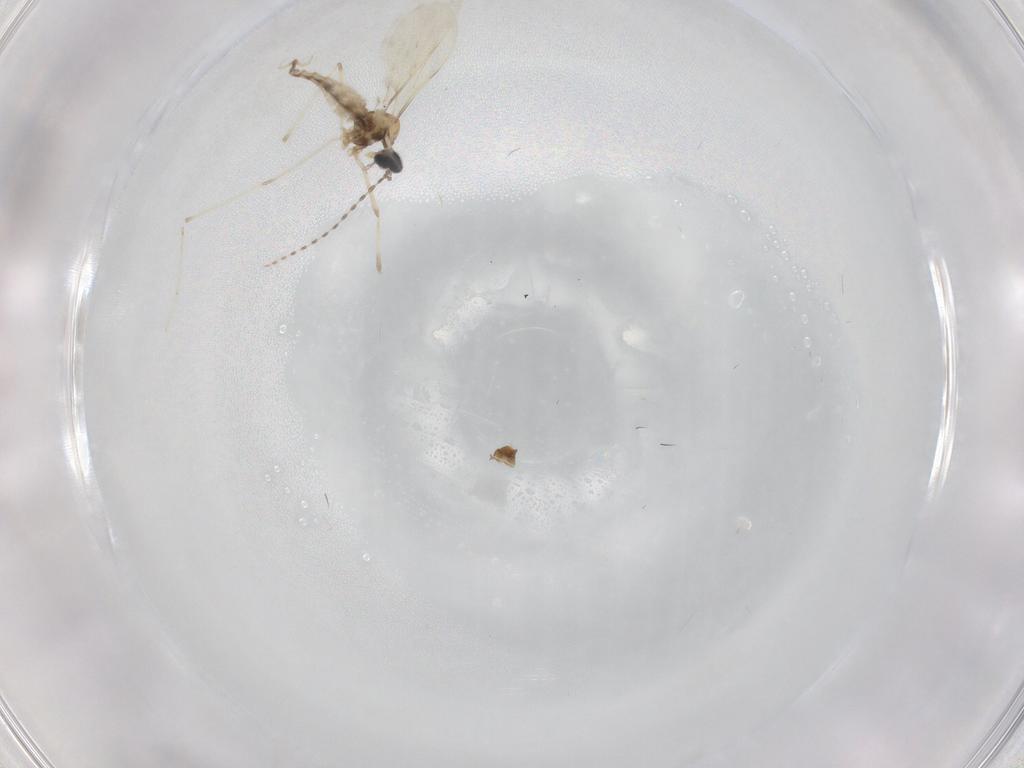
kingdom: Animalia
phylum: Arthropoda
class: Insecta
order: Diptera
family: Cecidomyiidae
